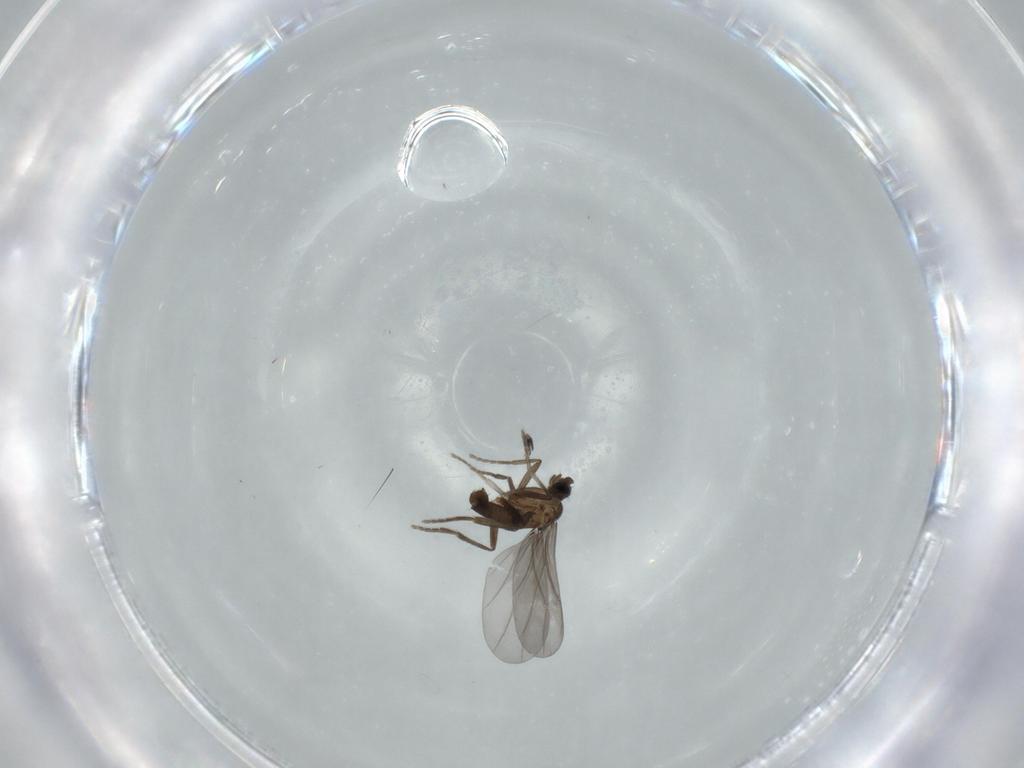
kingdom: Animalia
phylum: Arthropoda
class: Insecta
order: Diptera
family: Phoridae
